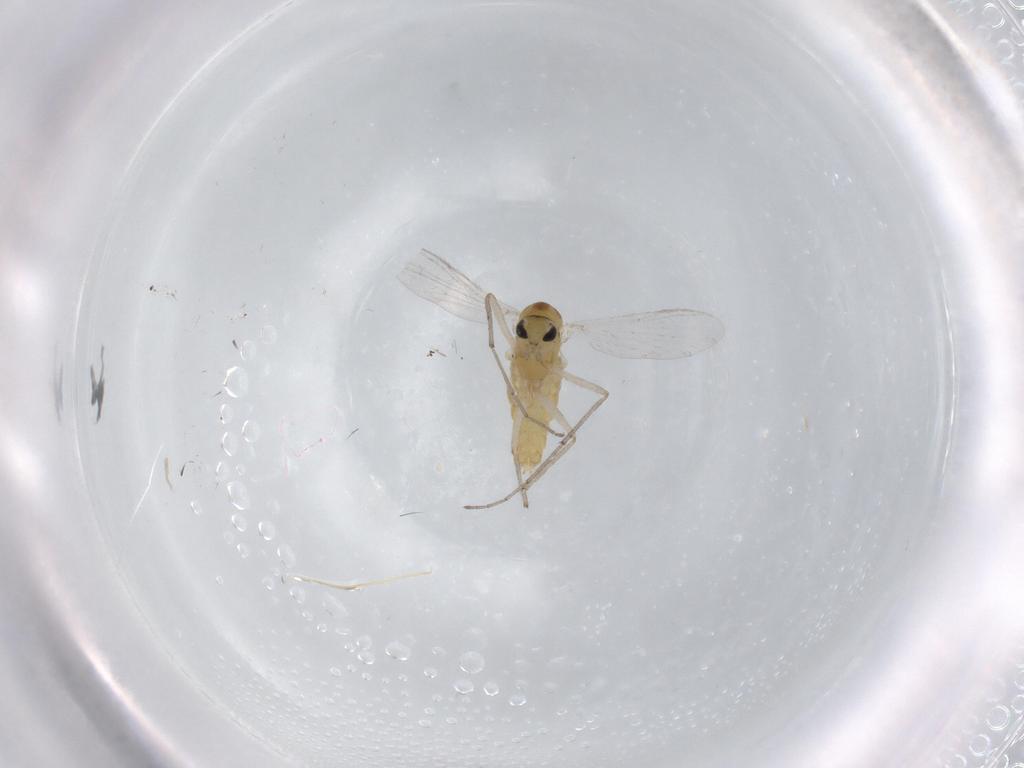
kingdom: Animalia
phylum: Arthropoda
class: Insecta
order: Diptera
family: Chironomidae
